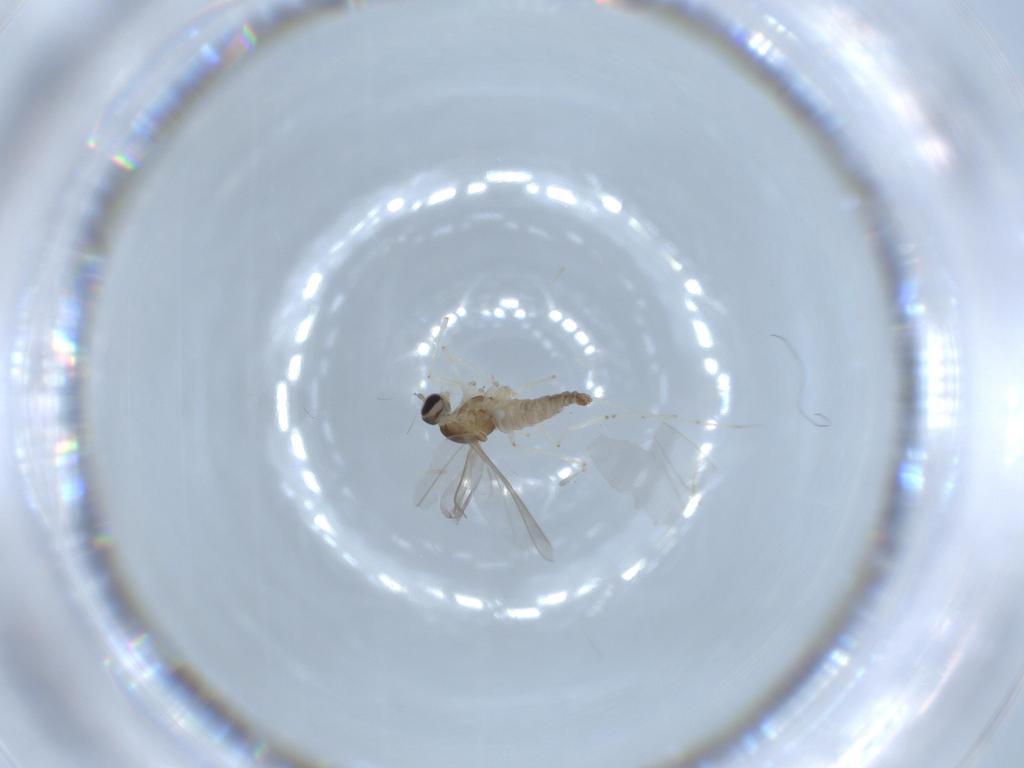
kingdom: Animalia
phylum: Arthropoda
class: Insecta
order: Diptera
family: Cecidomyiidae
